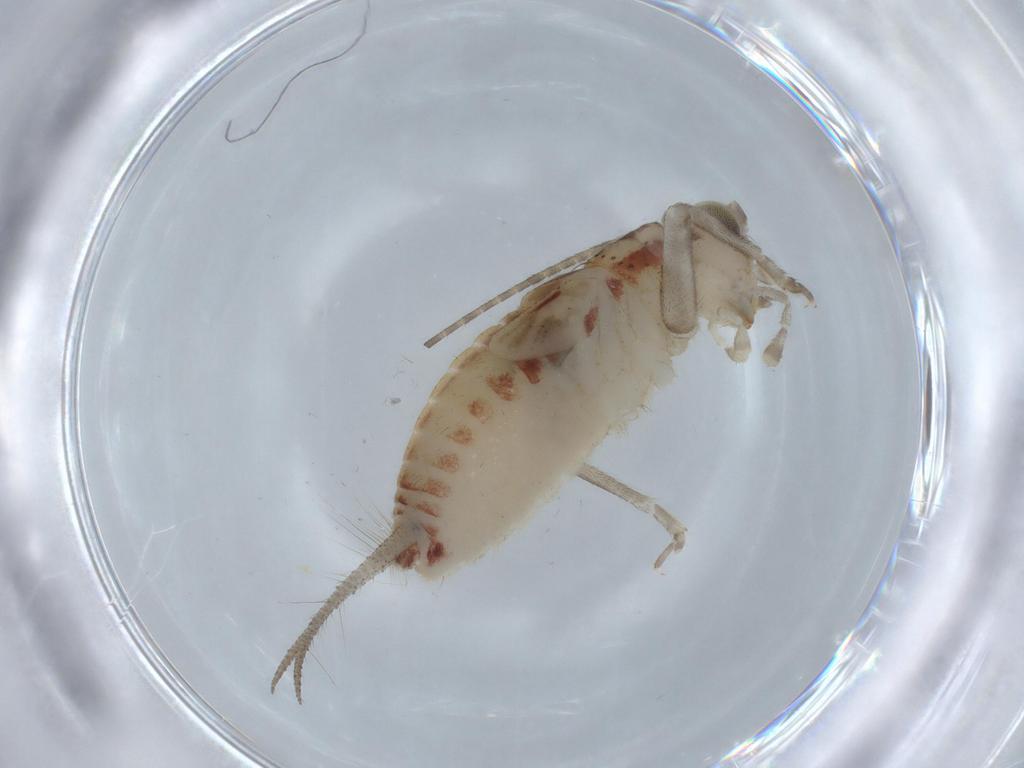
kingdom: Animalia
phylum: Arthropoda
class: Insecta
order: Orthoptera
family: Trigonidiidae
